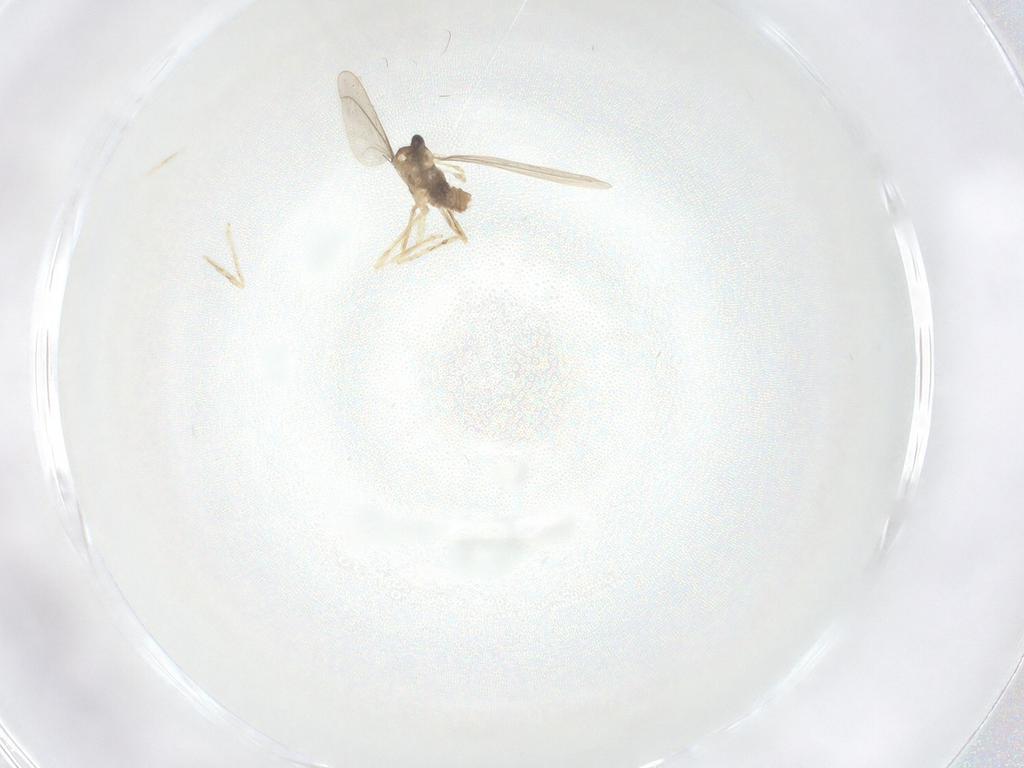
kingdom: Animalia
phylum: Arthropoda
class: Insecta
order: Diptera
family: Cecidomyiidae
